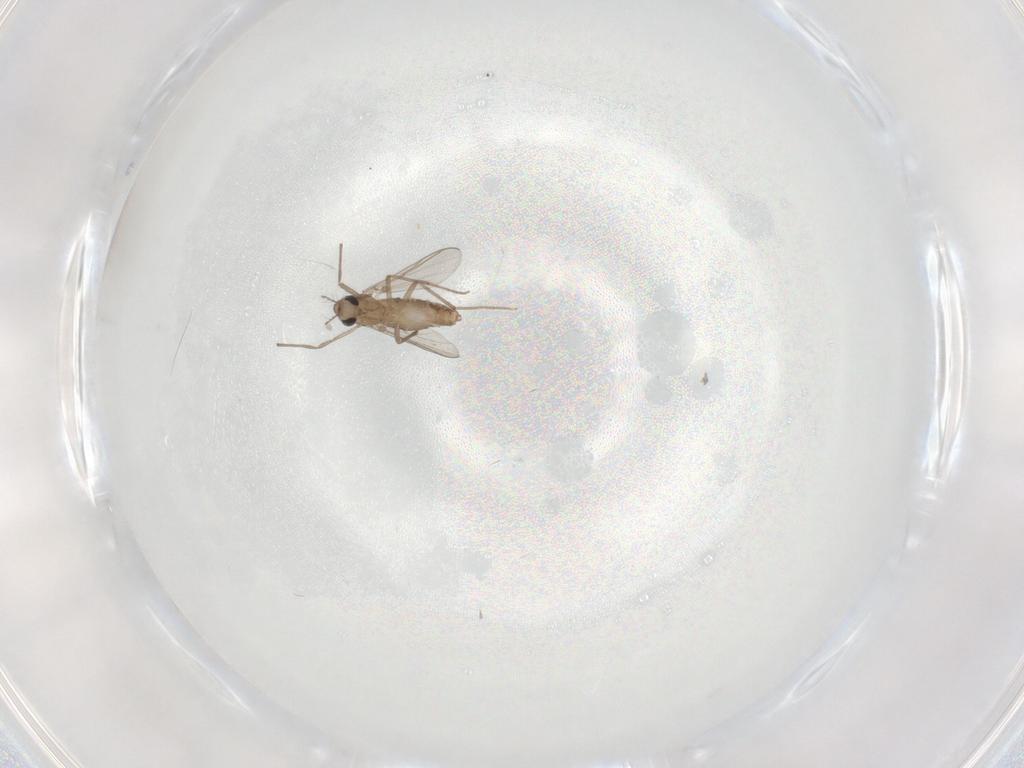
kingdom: Animalia
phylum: Arthropoda
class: Insecta
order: Diptera
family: Chironomidae
